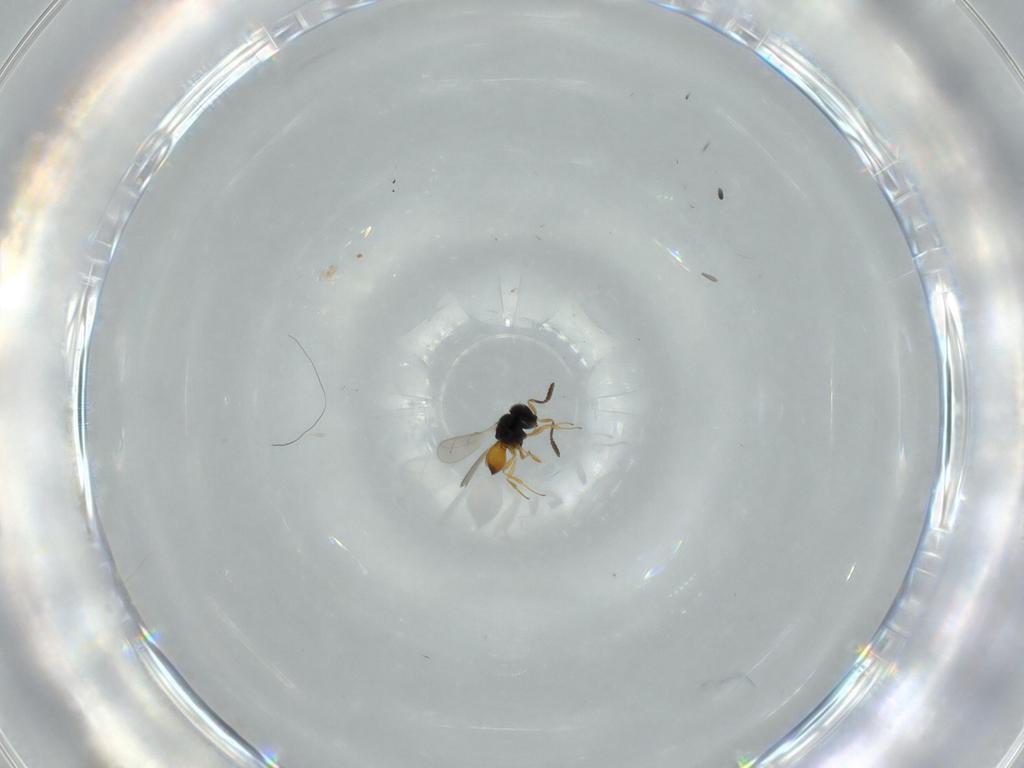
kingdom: Animalia
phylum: Arthropoda
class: Insecta
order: Hymenoptera
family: Scelionidae
